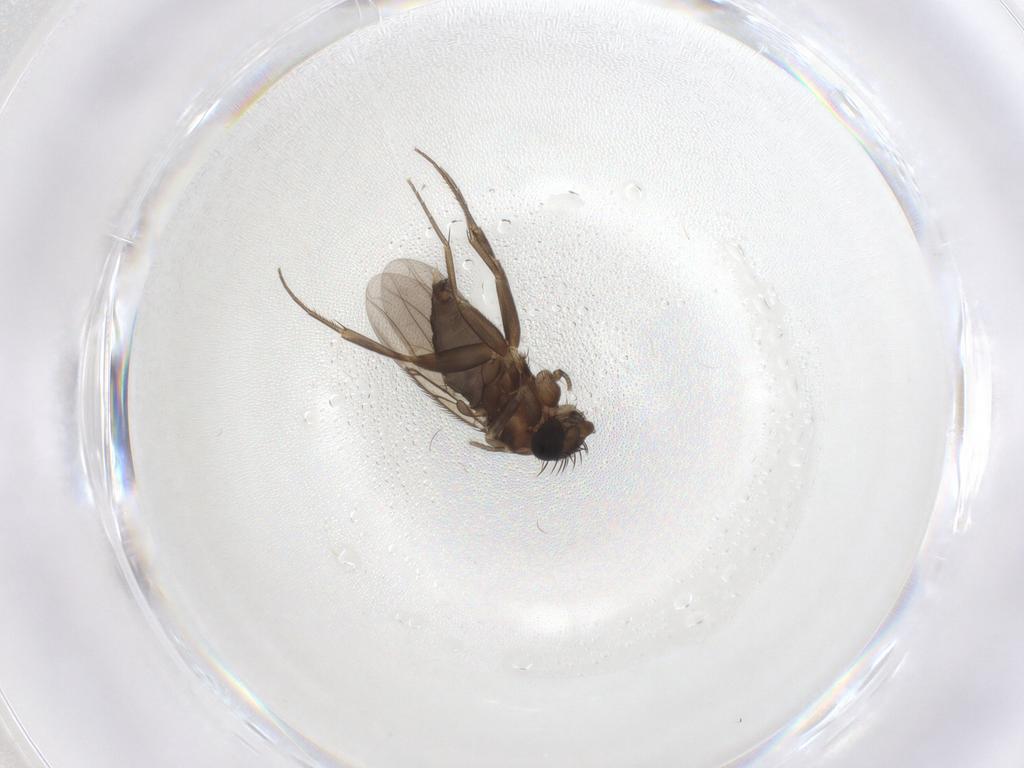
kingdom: Animalia
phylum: Arthropoda
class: Insecta
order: Diptera
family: Phoridae
